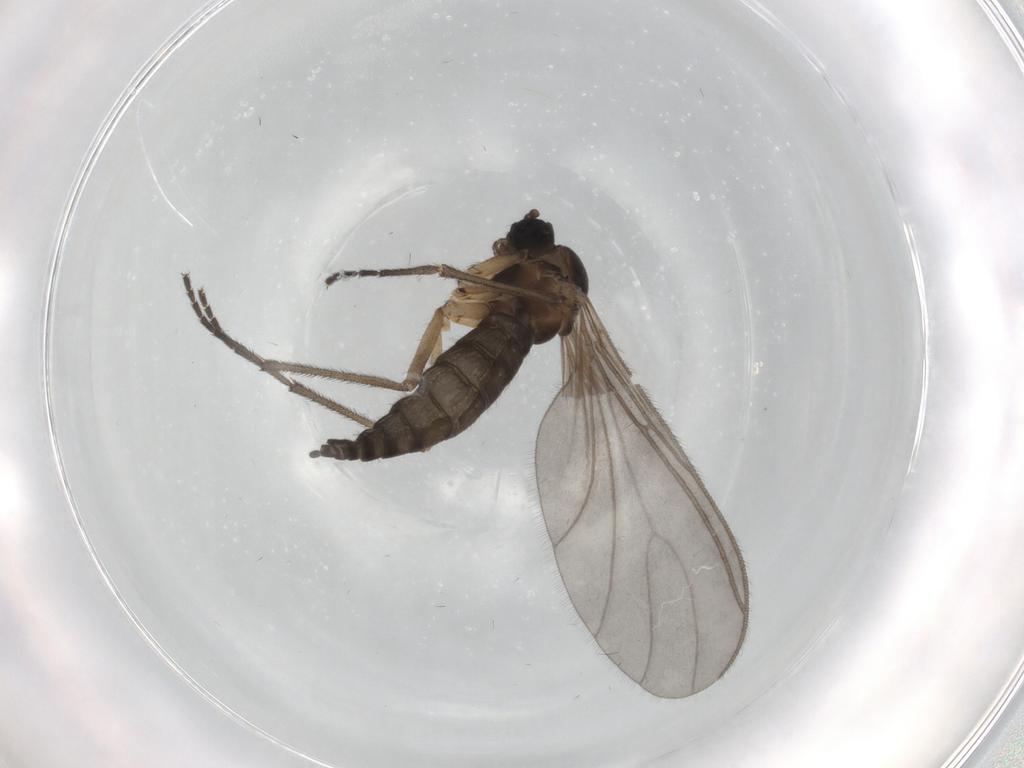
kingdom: Animalia
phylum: Arthropoda
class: Insecta
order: Diptera
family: Sciaridae
